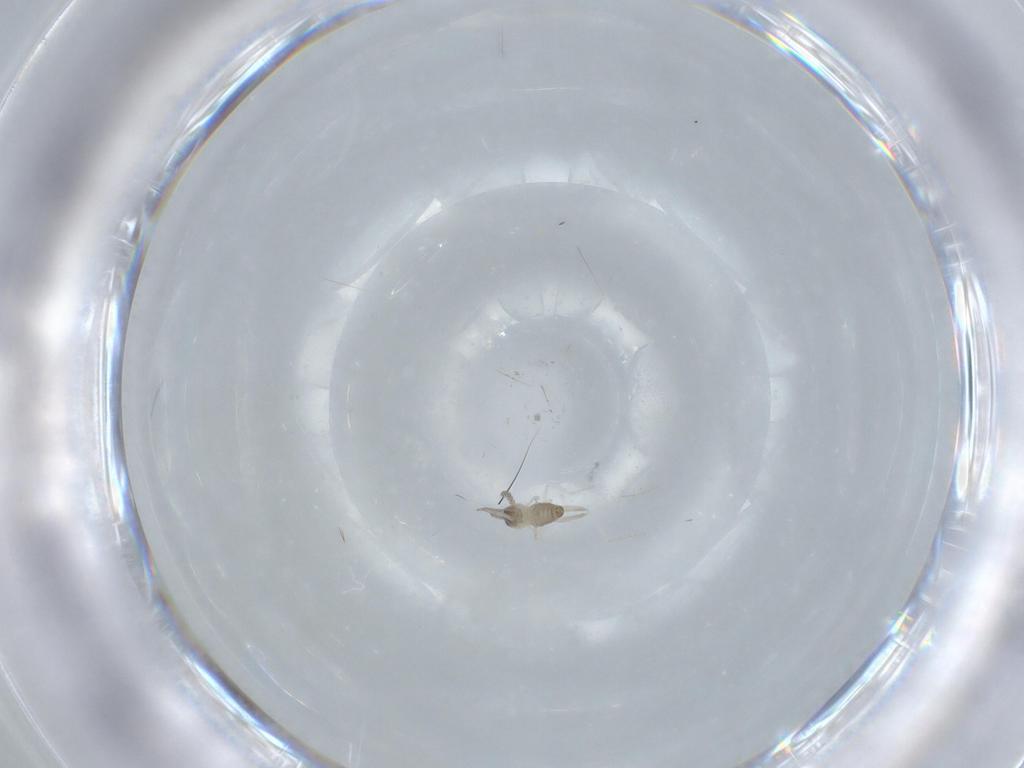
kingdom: Animalia
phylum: Arthropoda
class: Insecta
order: Diptera
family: Cecidomyiidae
